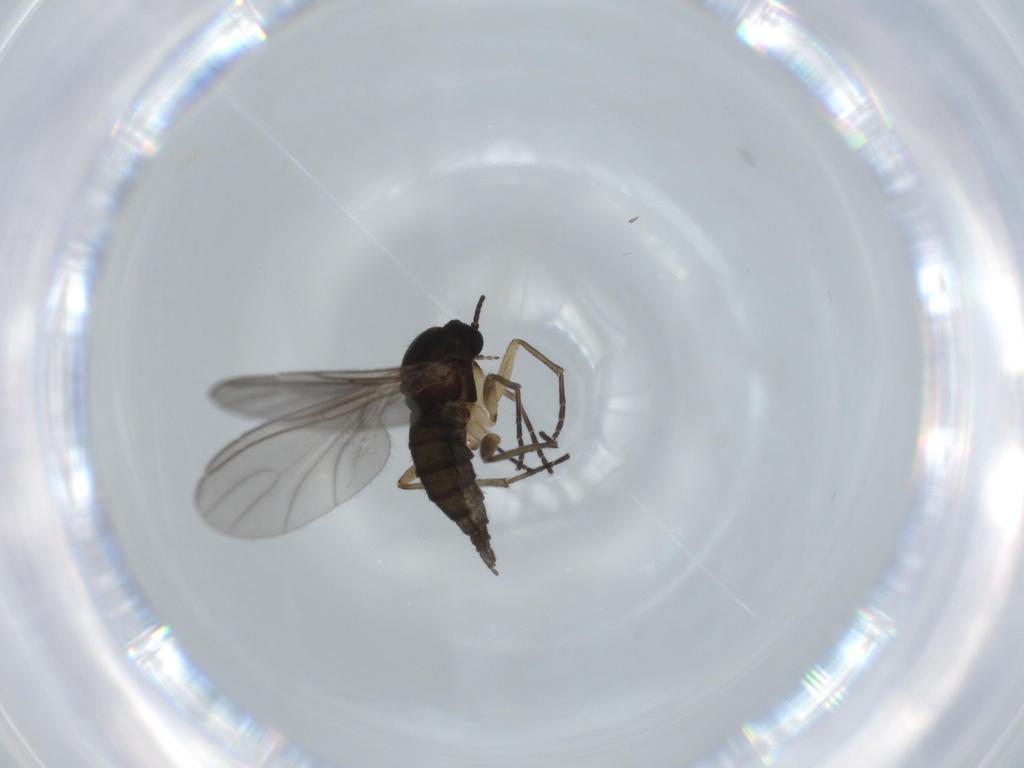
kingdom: Animalia
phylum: Arthropoda
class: Insecta
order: Diptera
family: Sciaridae
